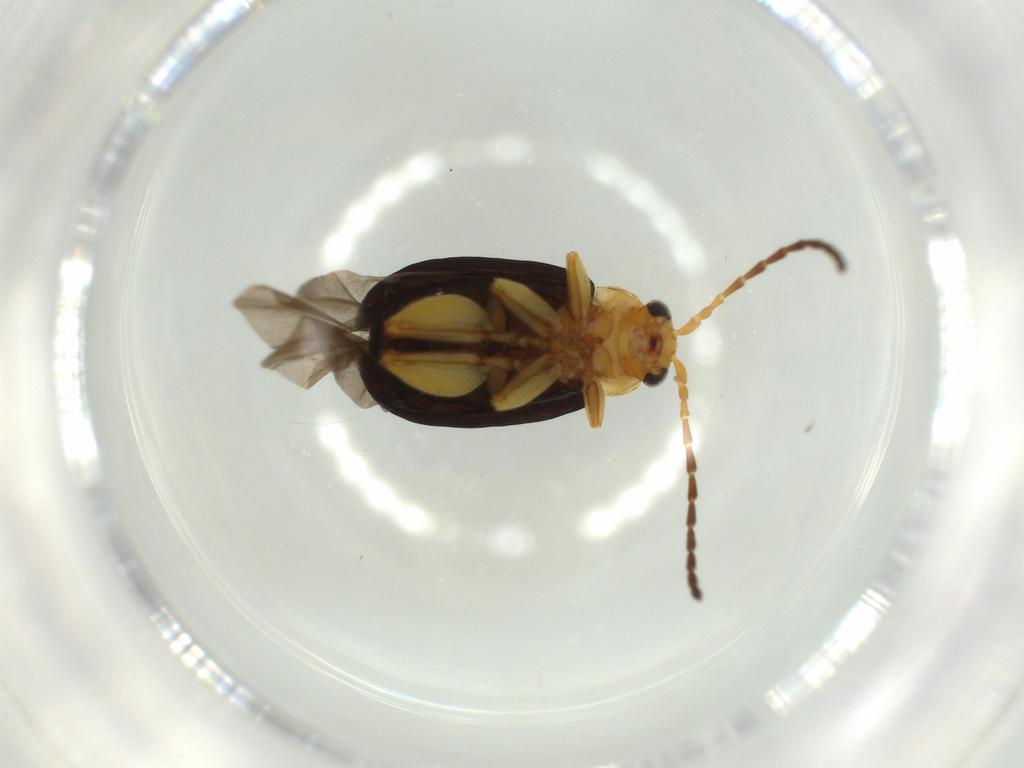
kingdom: Animalia
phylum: Arthropoda
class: Insecta
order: Coleoptera
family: Chrysomelidae
